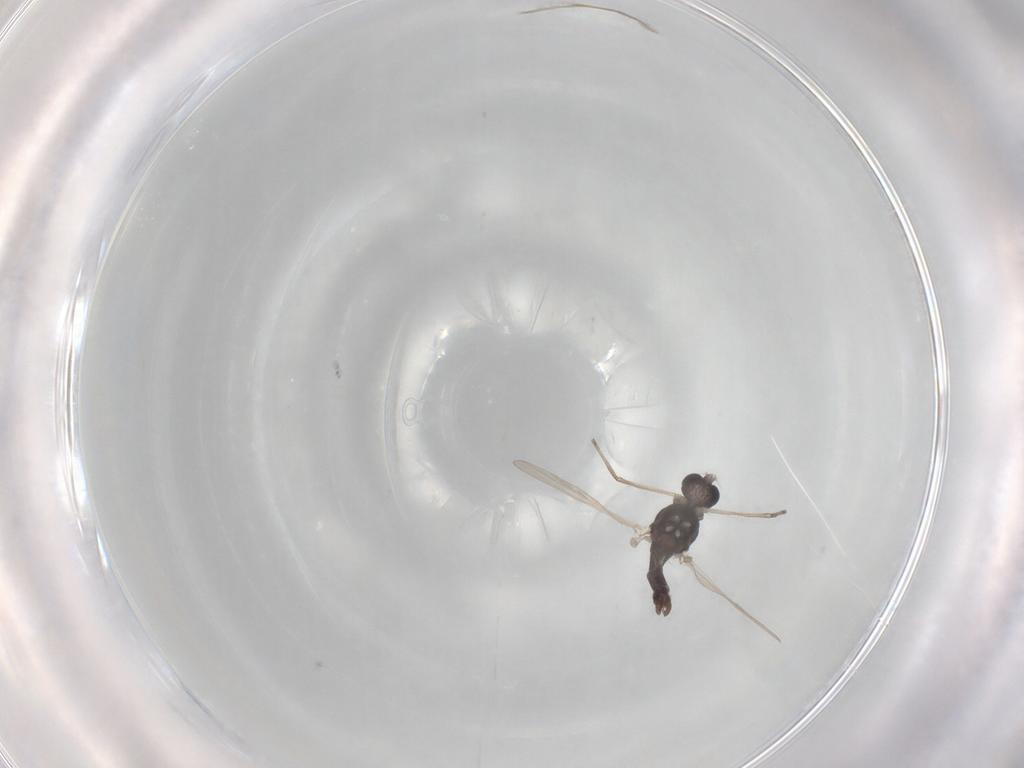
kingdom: Animalia
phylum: Arthropoda
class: Insecta
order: Diptera
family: Chironomidae
